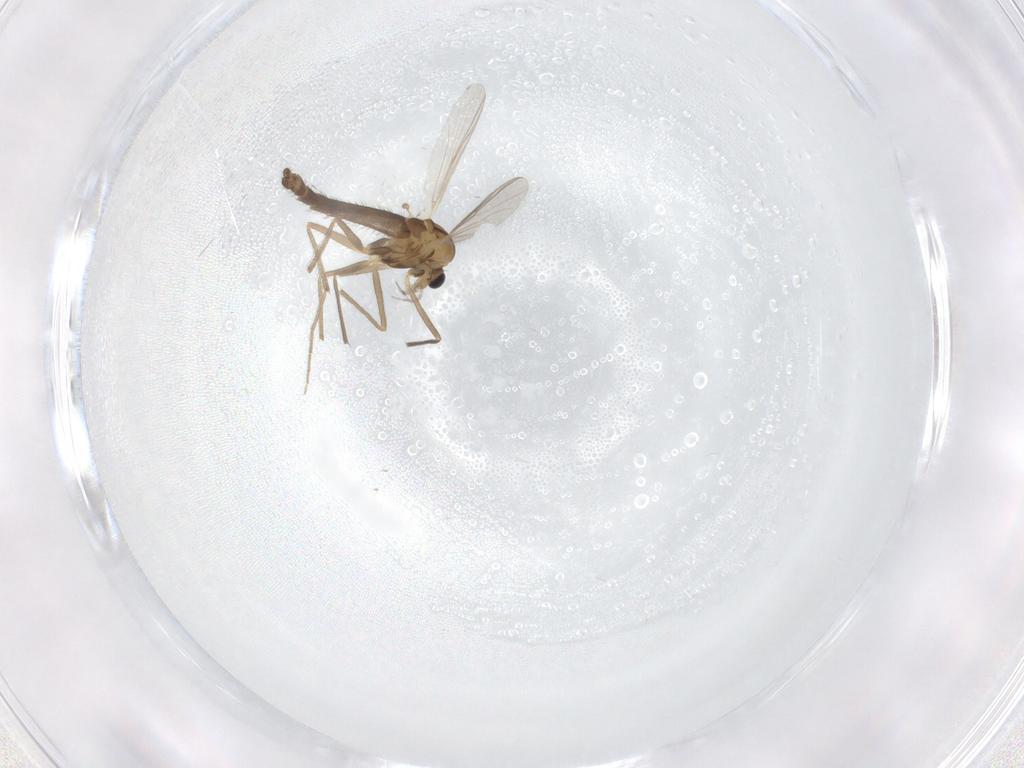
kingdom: Animalia
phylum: Arthropoda
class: Insecta
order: Diptera
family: Chironomidae
